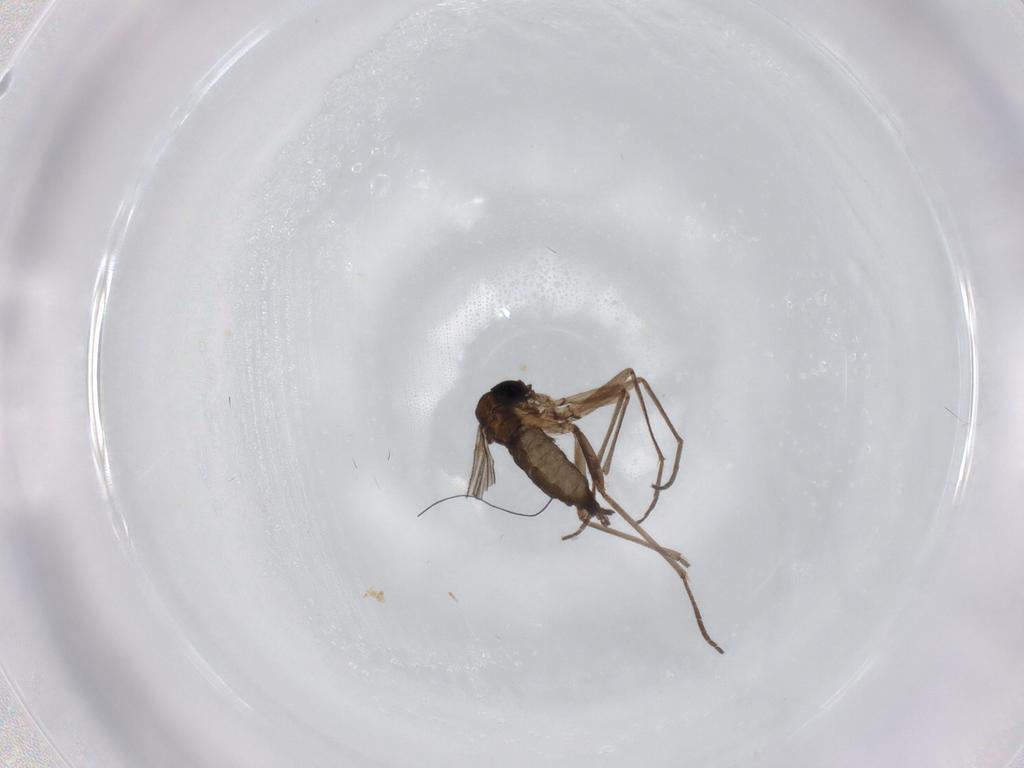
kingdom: Animalia
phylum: Arthropoda
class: Insecta
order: Diptera
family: Sciaridae
